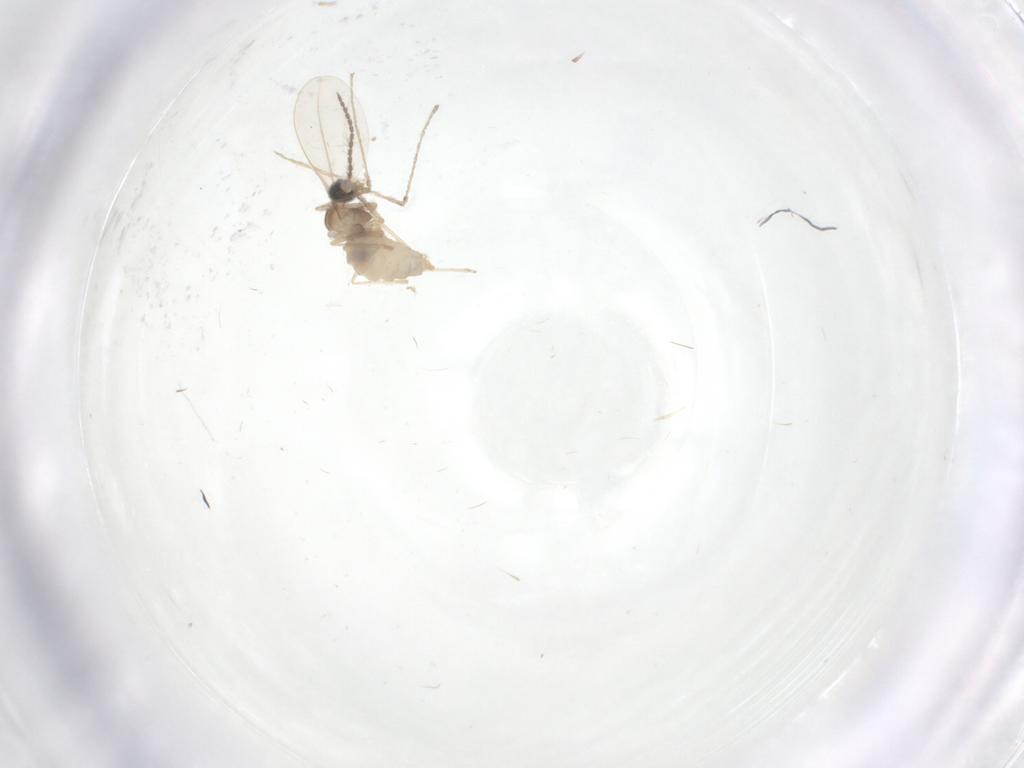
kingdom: Animalia
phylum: Arthropoda
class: Insecta
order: Diptera
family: Cecidomyiidae
